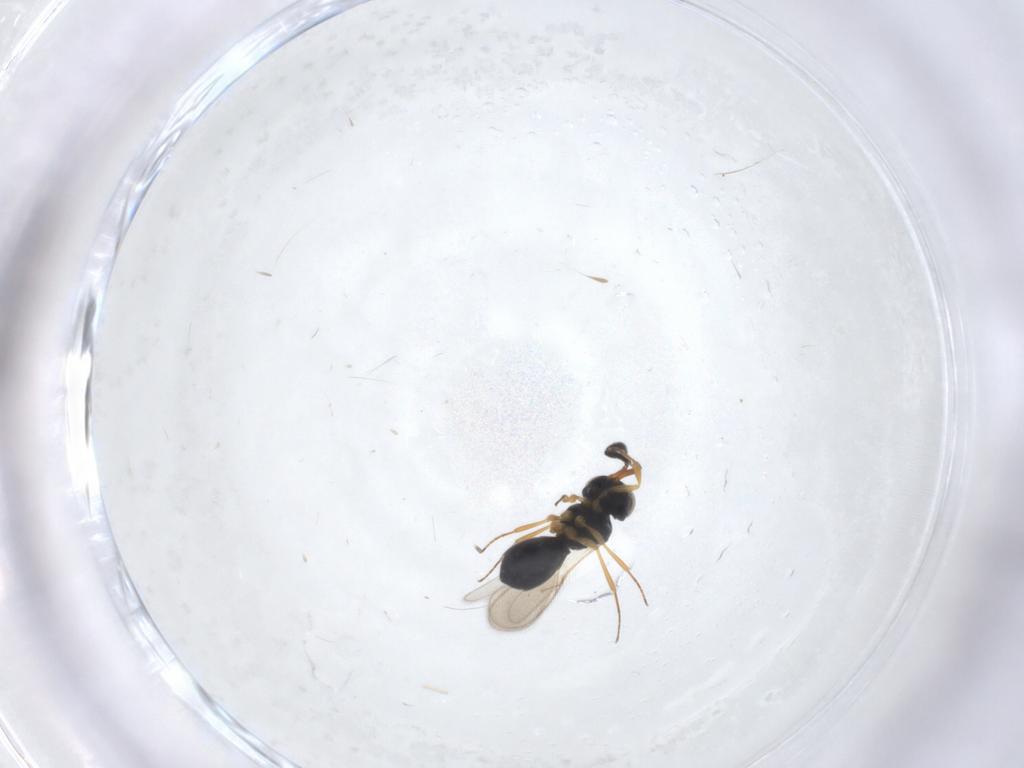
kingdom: Animalia
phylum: Arthropoda
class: Insecta
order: Hymenoptera
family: Scelionidae
